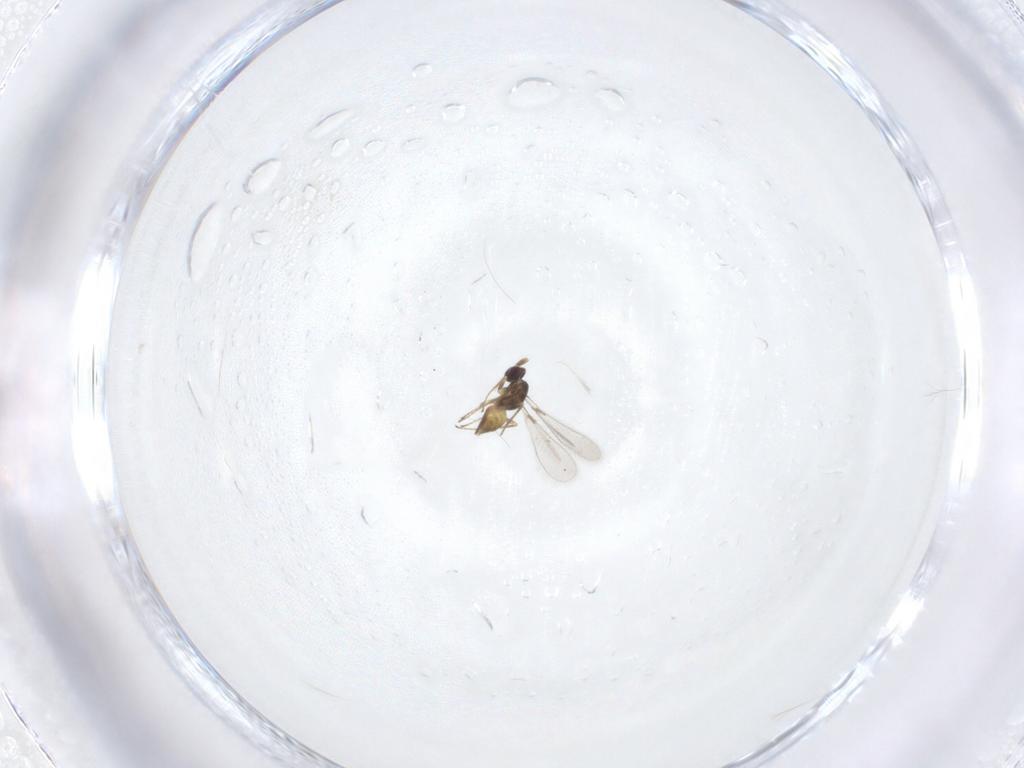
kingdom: Animalia
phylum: Arthropoda
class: Insecta
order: Hymenoptera
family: Mymaridae
